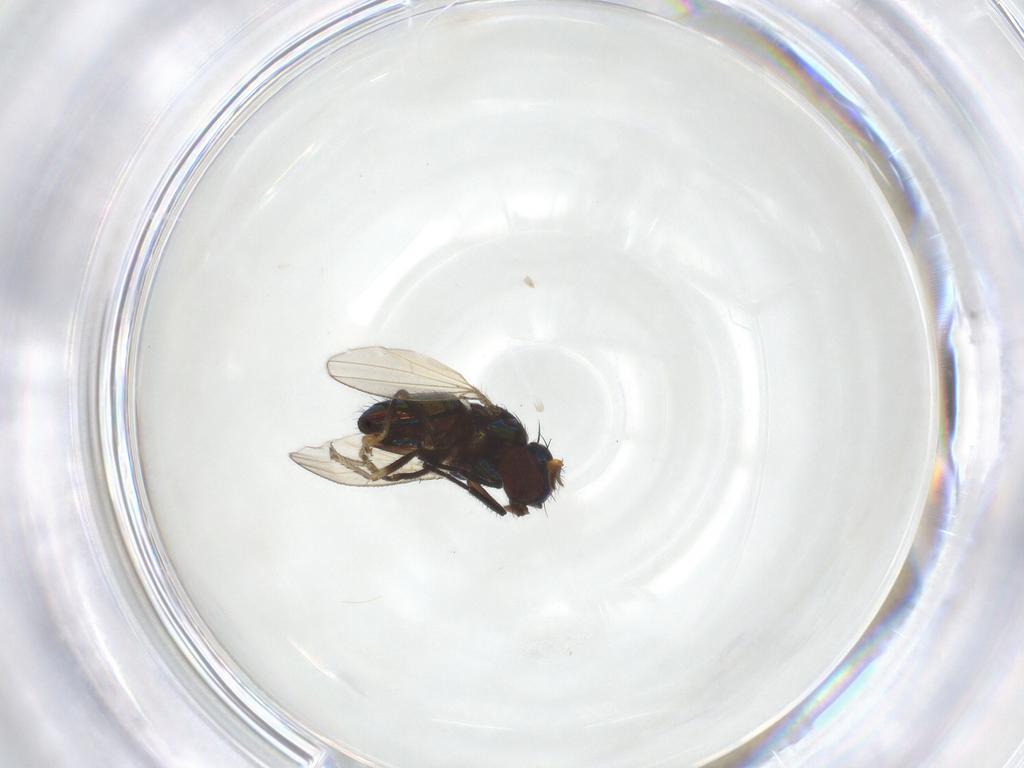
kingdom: Animalia
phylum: Arthropoda
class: Insecta
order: Diptera
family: Ephydridae
